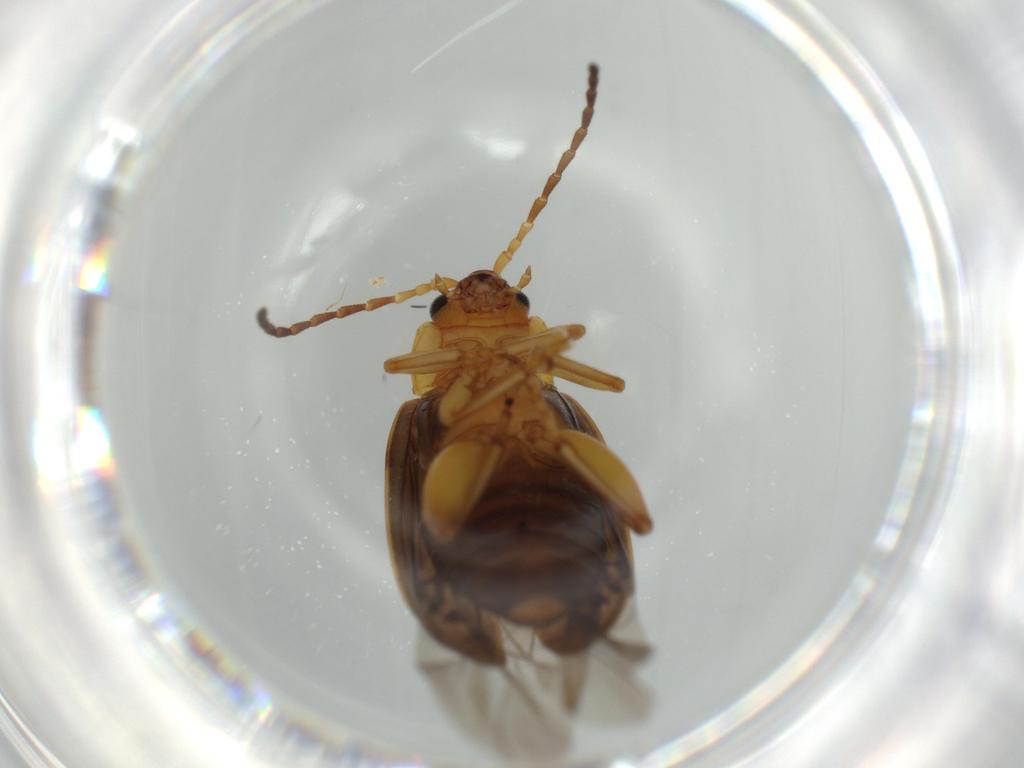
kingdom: Animalia
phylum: Arthropoda
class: Insecta
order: Coleoptera
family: Chrysomelidae
